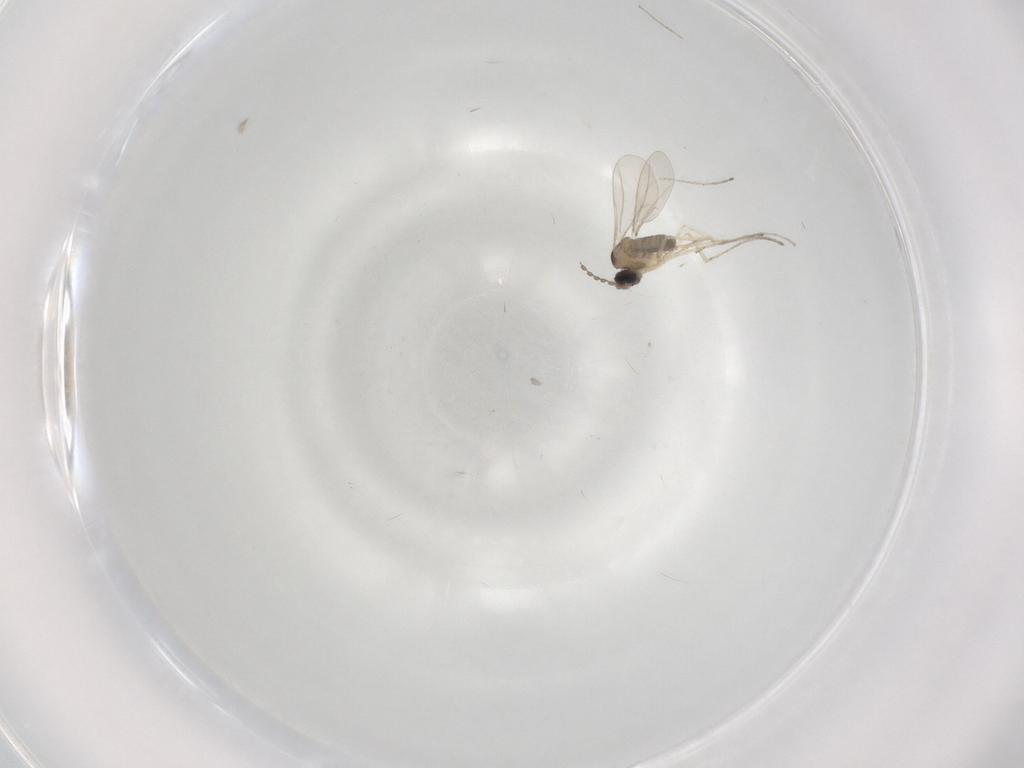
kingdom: Animalia
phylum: Arthropoda
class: Insecta
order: Diptera
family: Cecidomyiidae
